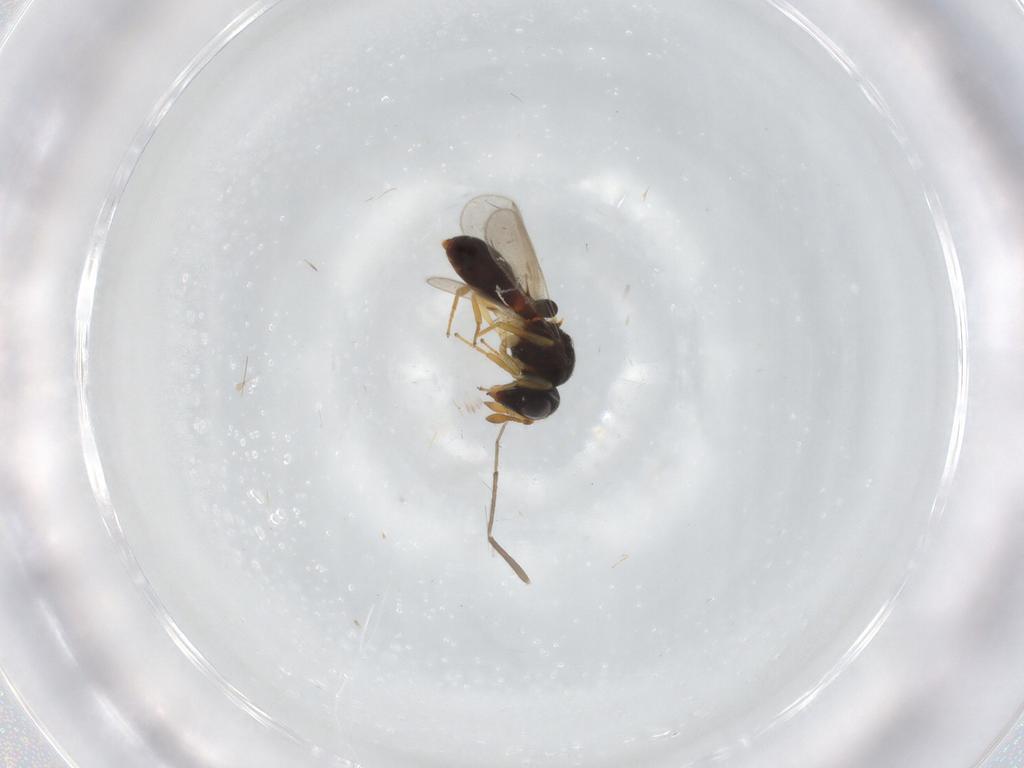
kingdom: Animalia
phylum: Arthropoda
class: Insecta
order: Hymenoptera
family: Scelionidae
